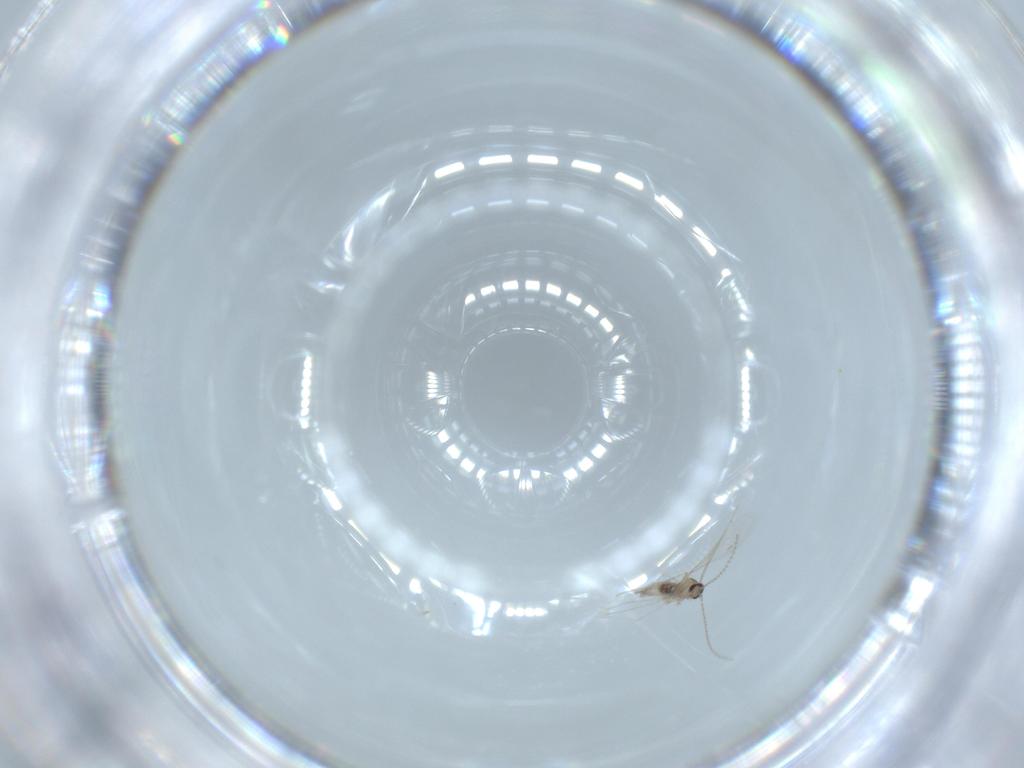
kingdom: Animalia
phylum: Arthropoda
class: Insecta
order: Diptera
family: Cecidomyiidae
